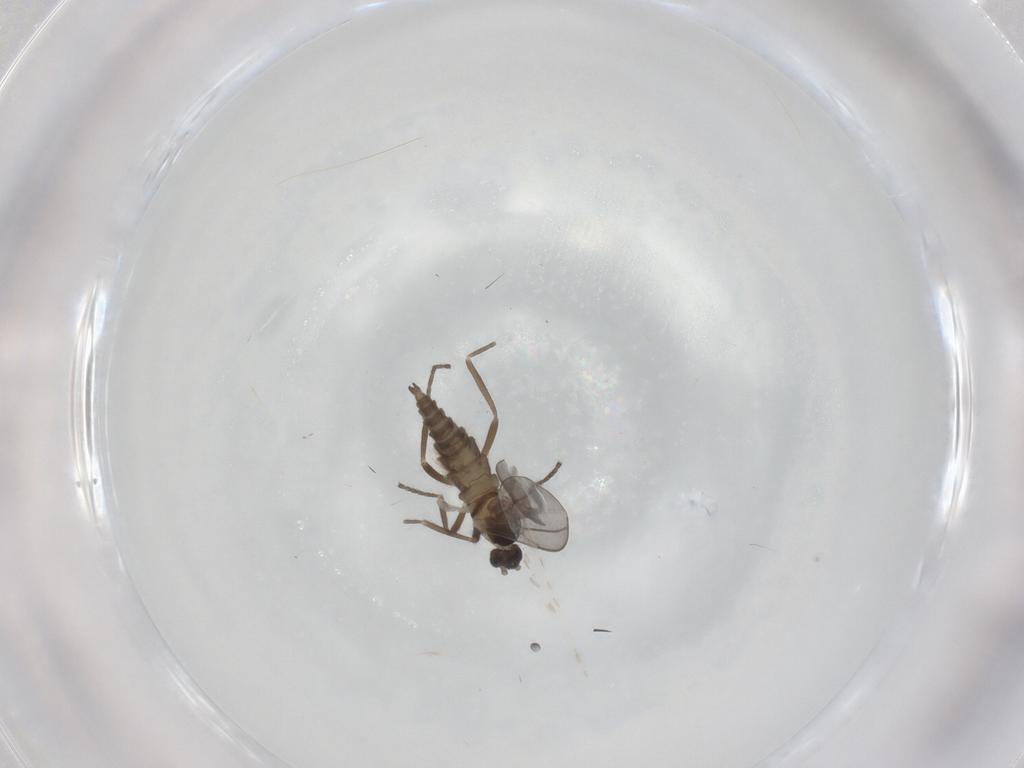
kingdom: Animalia
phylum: Arthropoda
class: Insecta
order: Diptera
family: Cecidomyiidae
